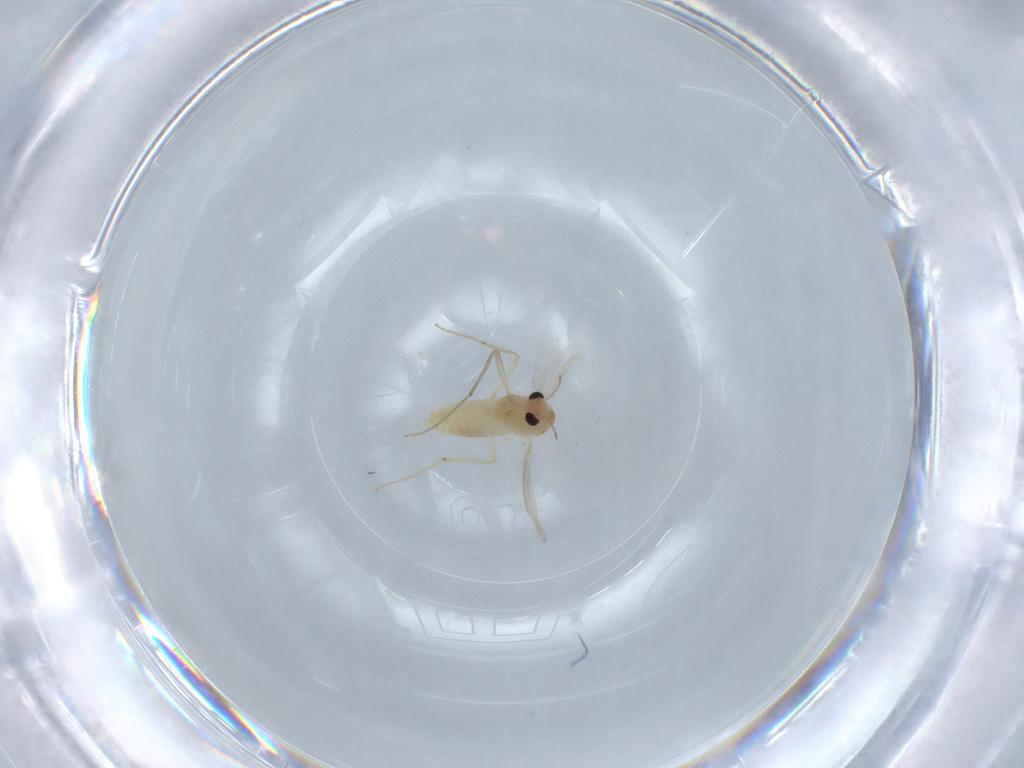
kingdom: Animalia
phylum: Arthropoda
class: Insecta
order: Diptera
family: Chironomidae
